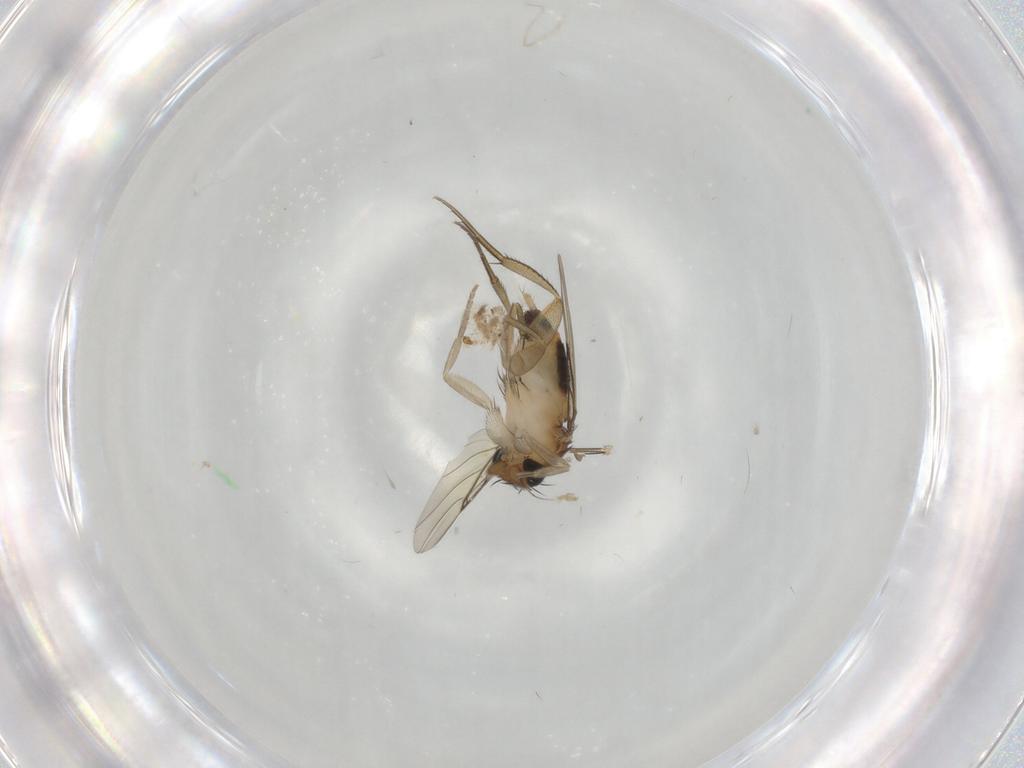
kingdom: Animalia
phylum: Arthropoda
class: Insecta
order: Diptera
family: Phoridae
